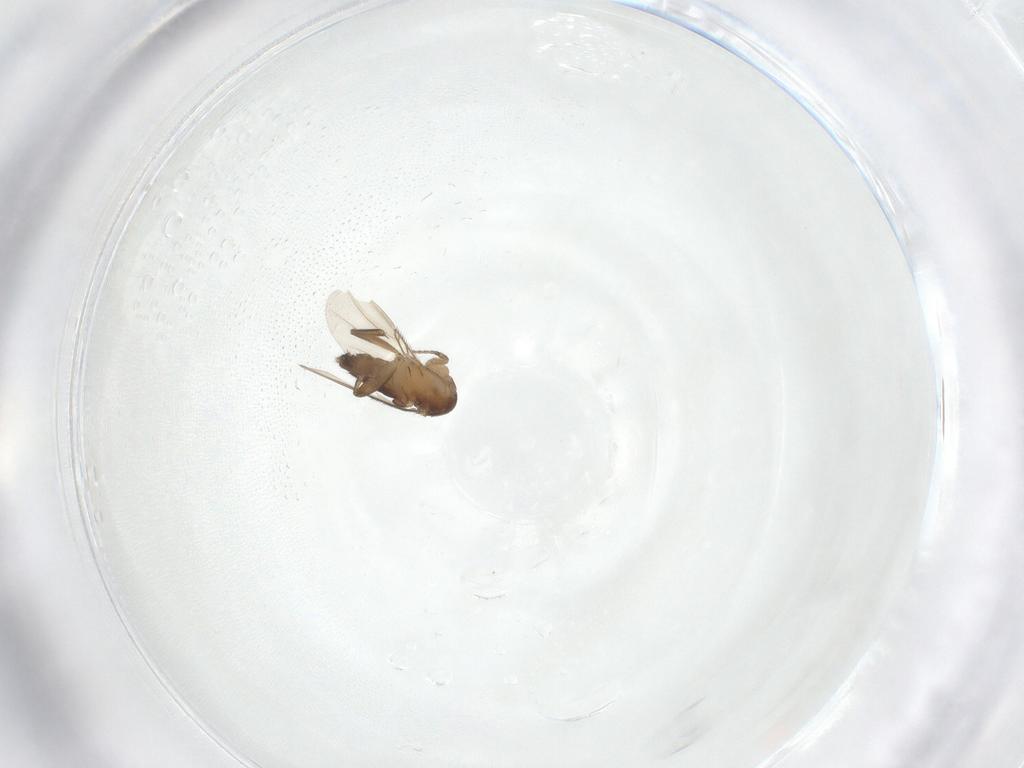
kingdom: Animalia
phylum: Arthropoda
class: Insecta
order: Diptera
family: Phoridae
